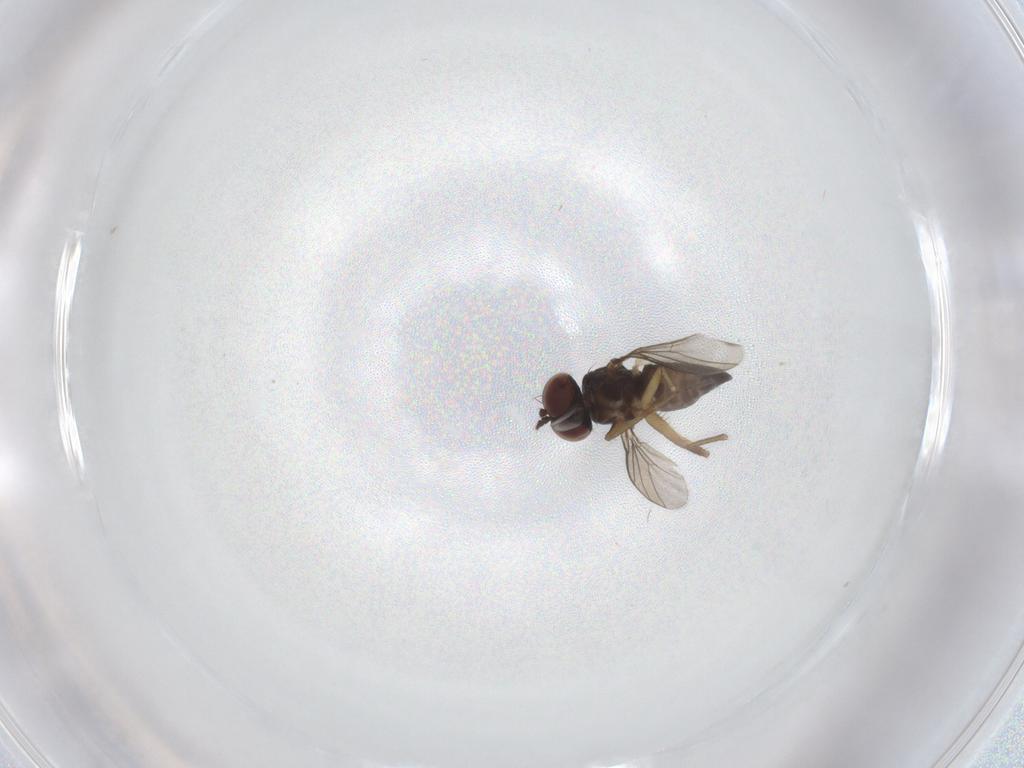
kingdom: Animalia
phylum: Arthropoda
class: Insecta
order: Diptera
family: Dolichopodidae
